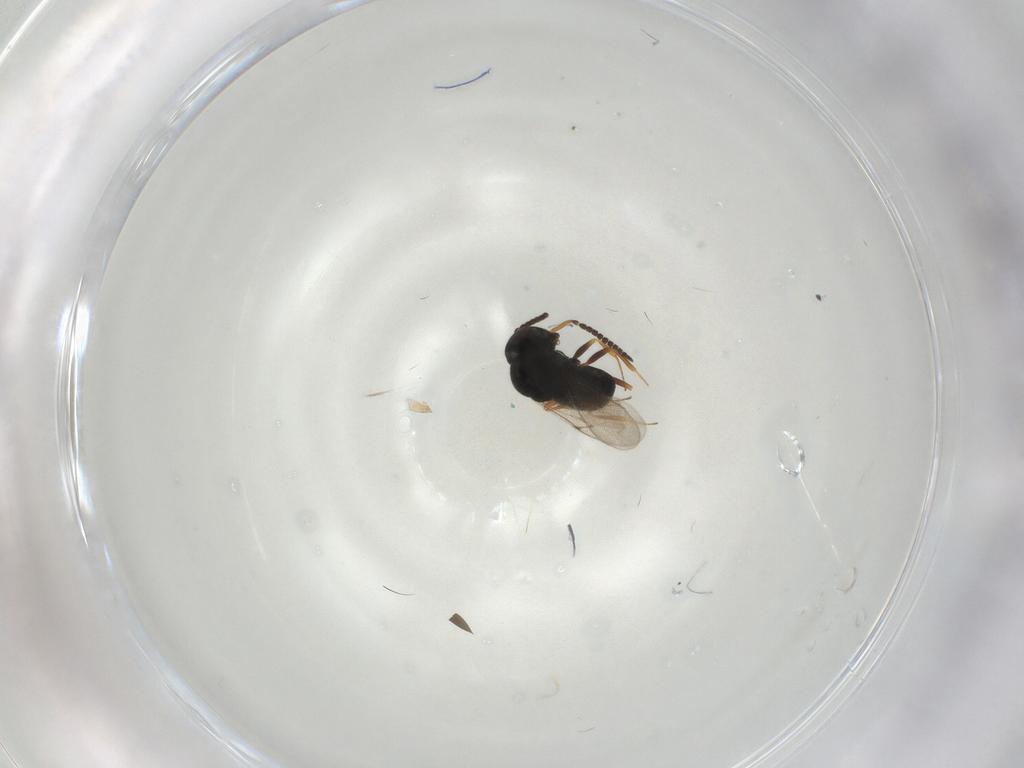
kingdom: Animalia
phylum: Arthropoda
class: Insecta
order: Hymenoptera
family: Scelionidae
